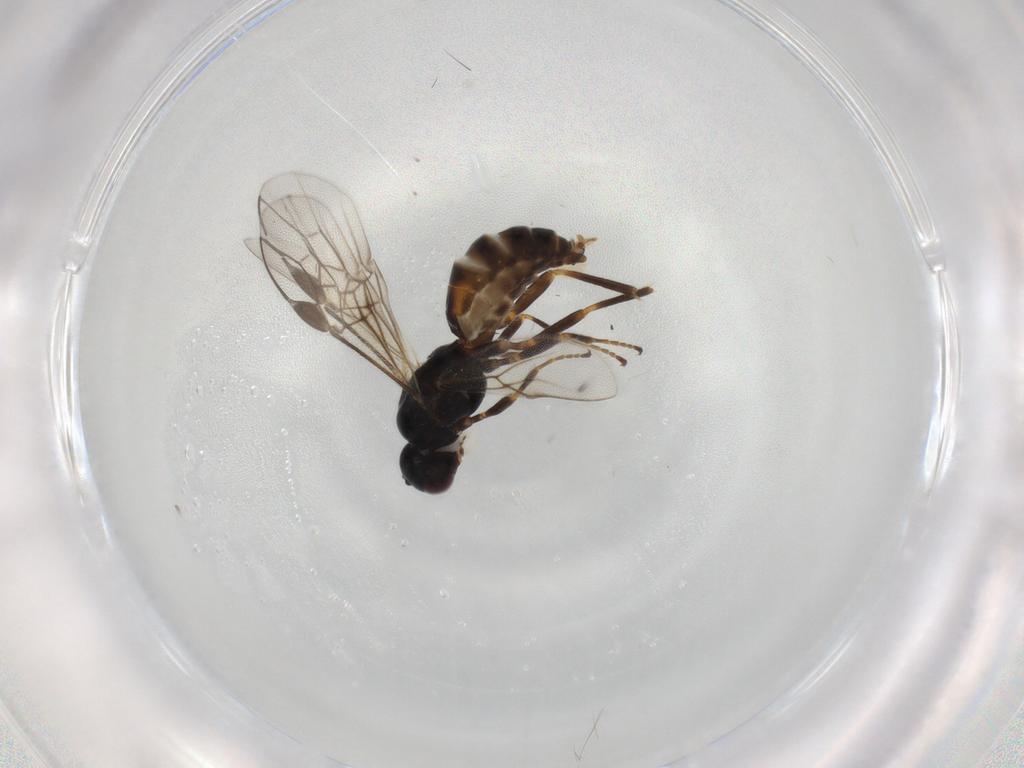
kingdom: Animalia
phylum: Arthropoda
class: Insecta
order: Hymenoptera
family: Braconidae
